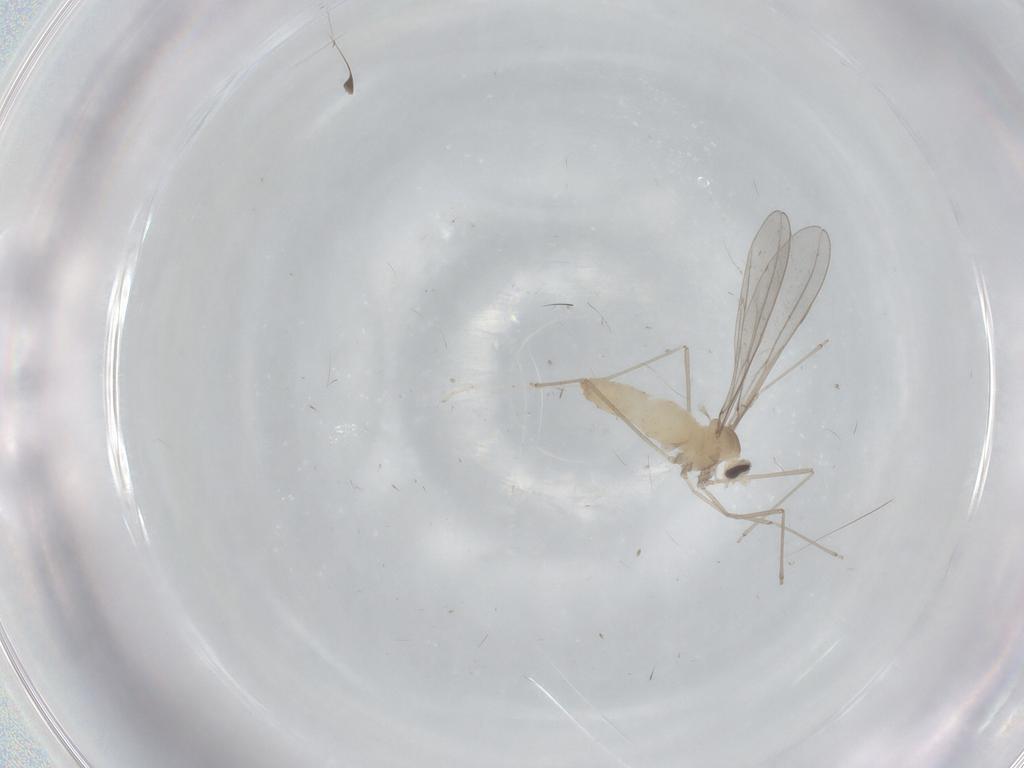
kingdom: Animalia
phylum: Arthropoda
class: Insecta
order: Diptera
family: Cecidomyiidae
